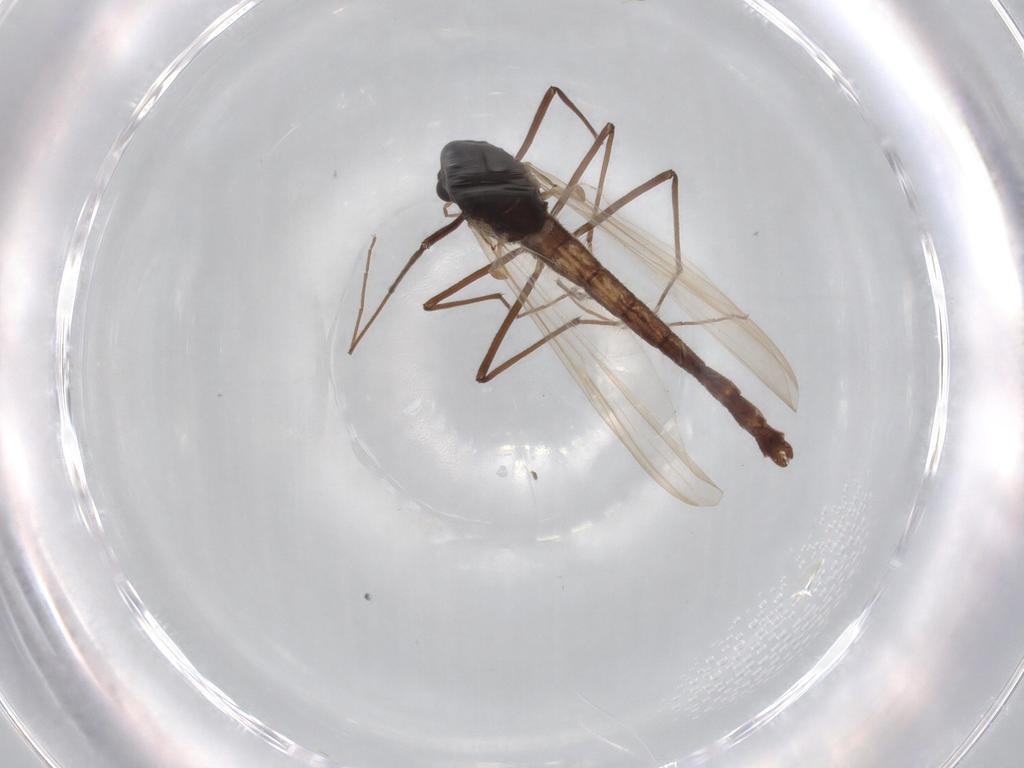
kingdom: Animalia
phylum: Arthropoda
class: Insecta
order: Diptera
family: Dolichopodidae
